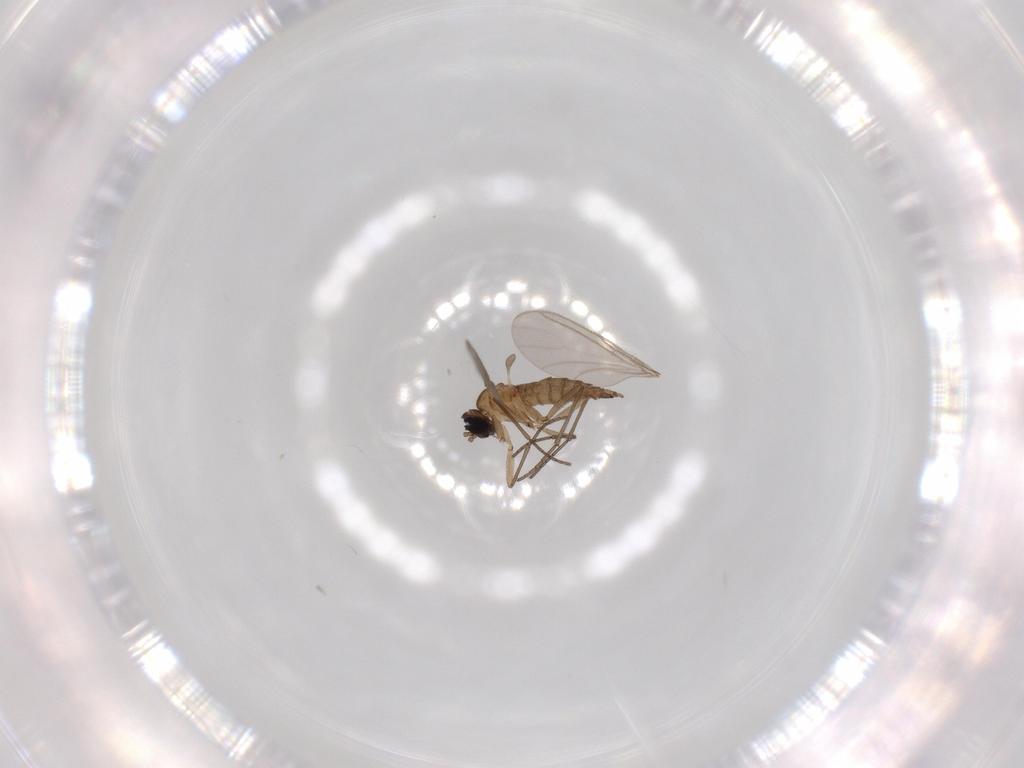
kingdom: Animalia
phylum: Arthropoda
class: Insecta
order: Diptera
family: Sciaridae
